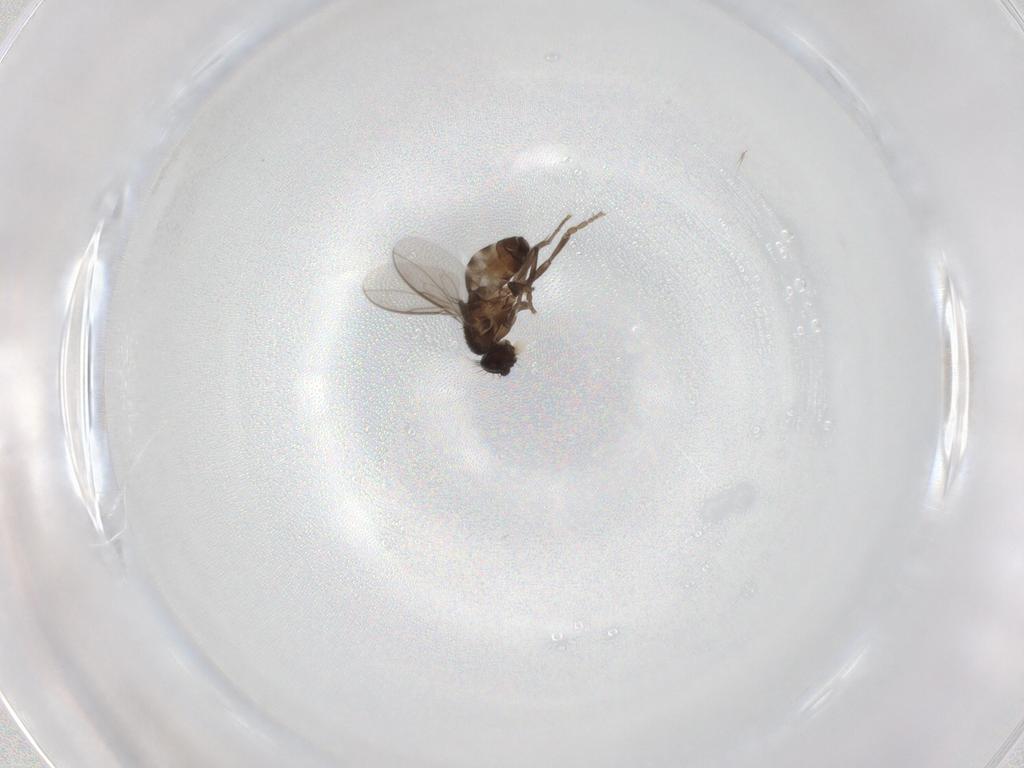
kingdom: Animalia
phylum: Arthropoda
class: Insecta
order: Diptera
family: Sphaeroceridae
